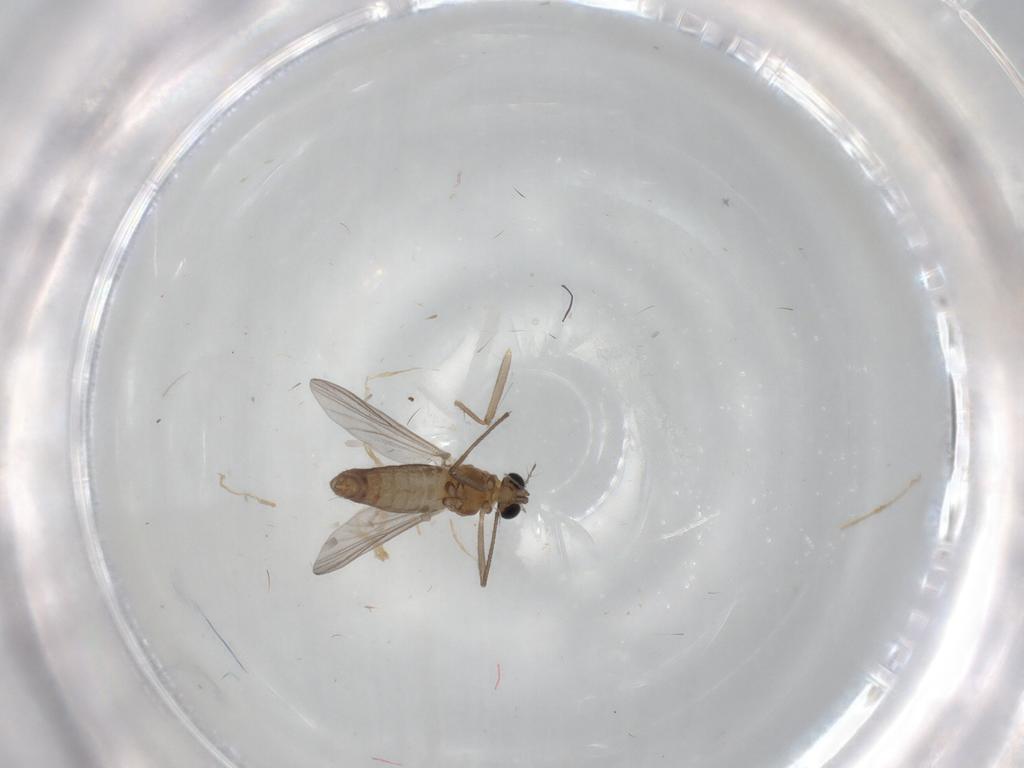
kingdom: Animalia
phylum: Arthropoda
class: Insecta
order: Diptera
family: Chironomidae
